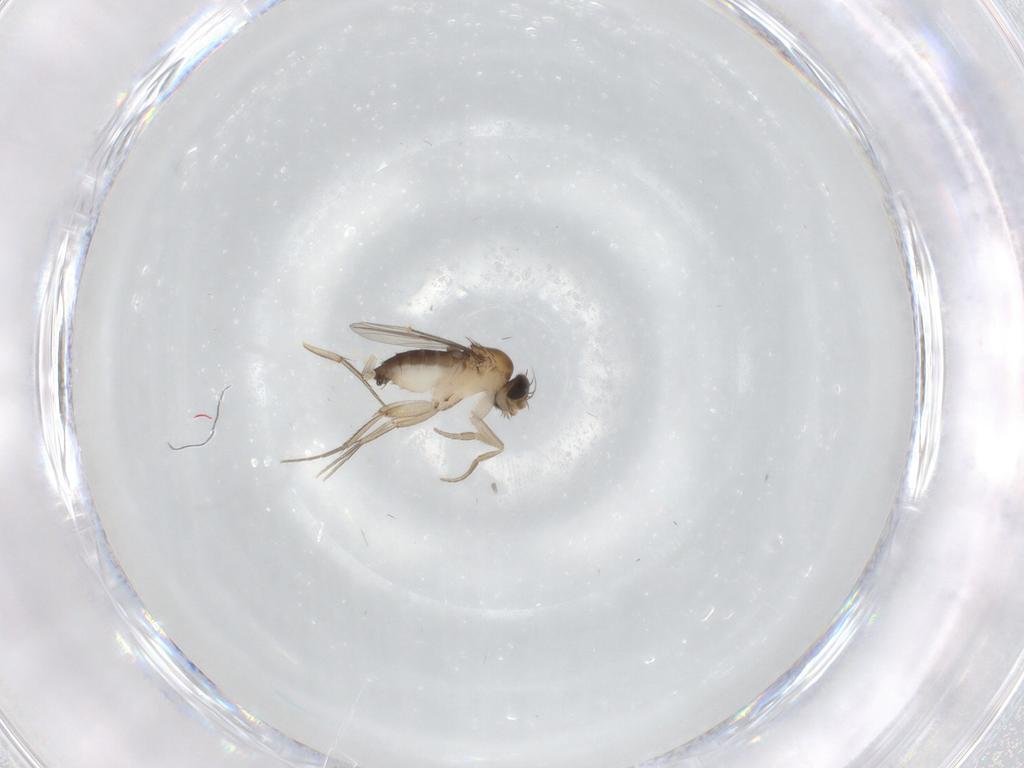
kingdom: Animalia
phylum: Arthropoda
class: Insecta
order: Diptera
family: Phoridae
